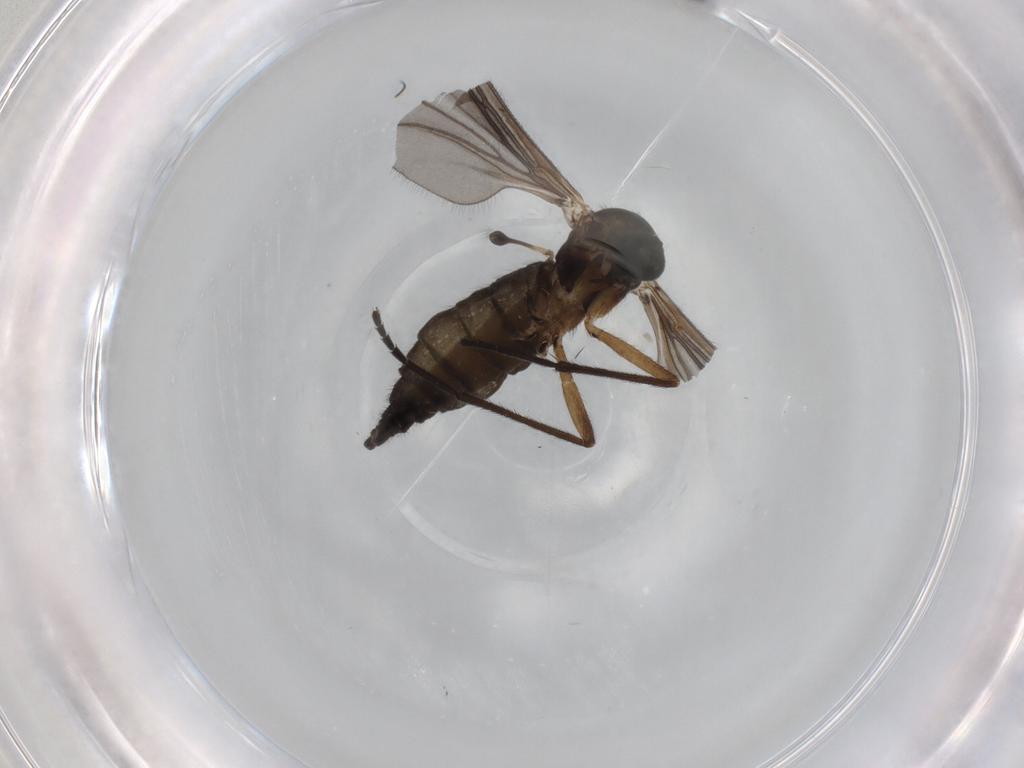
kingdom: Animalia
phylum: Arthropoda
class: Insecta
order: Diptera
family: Sciaridae
